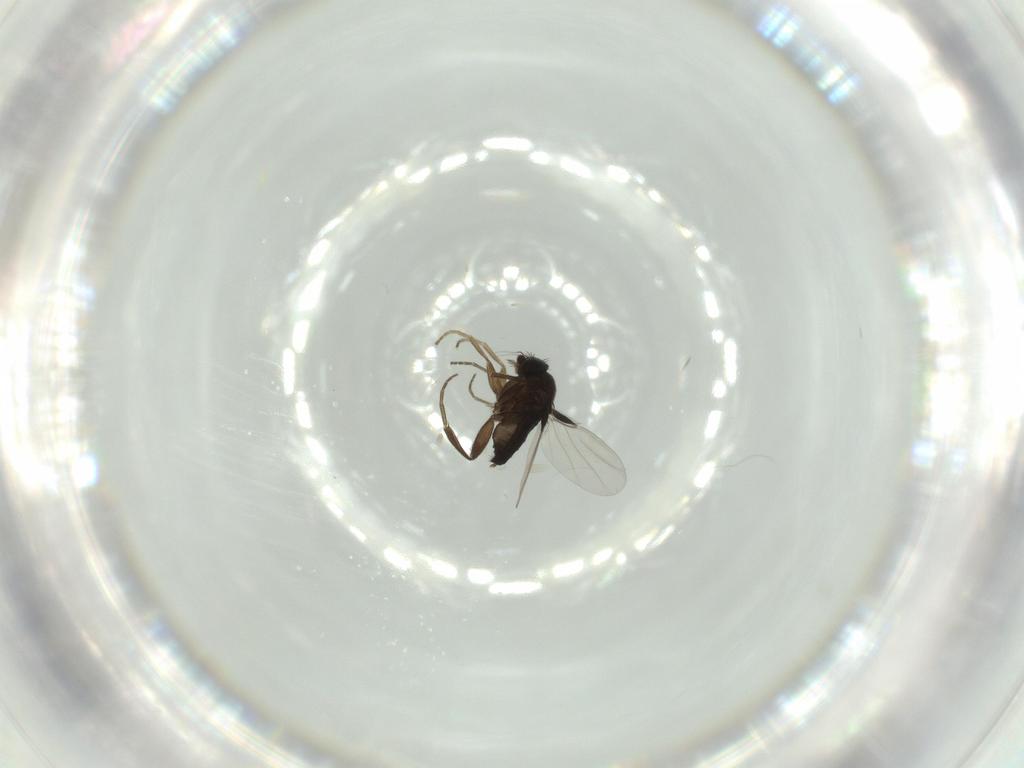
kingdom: Animalia
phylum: Arthropoda
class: Insecta
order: Diptera
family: Phoridae
